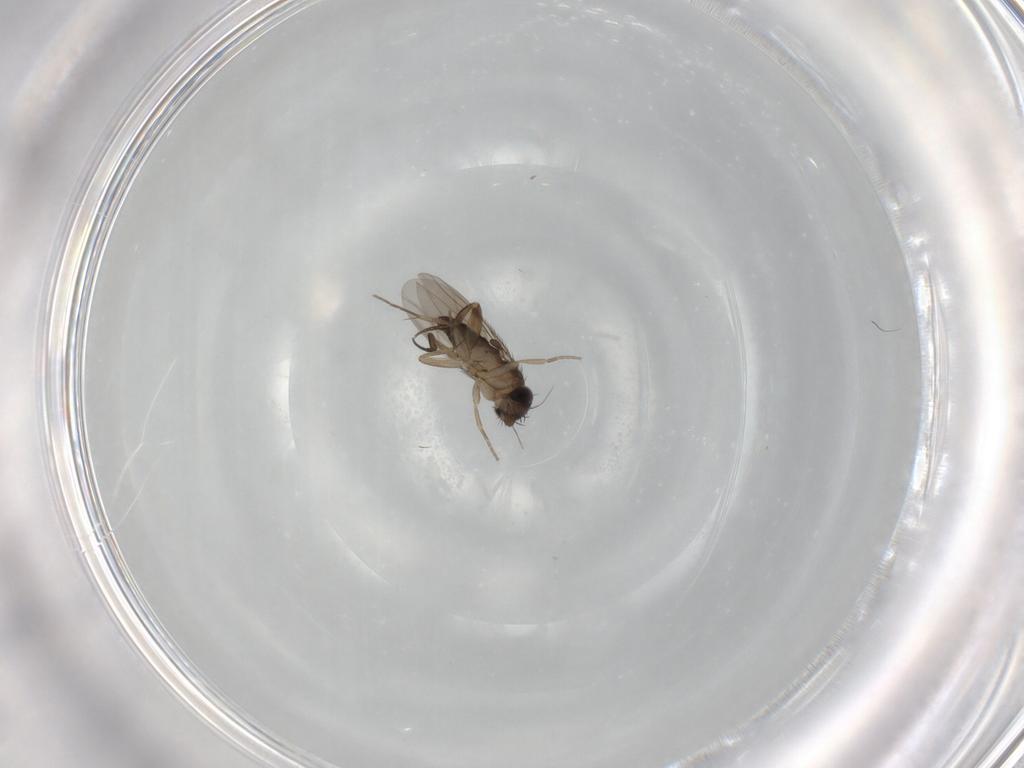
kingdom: Animalia
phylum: Arthropoda
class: Insecta
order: Diptera
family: Phoridae
